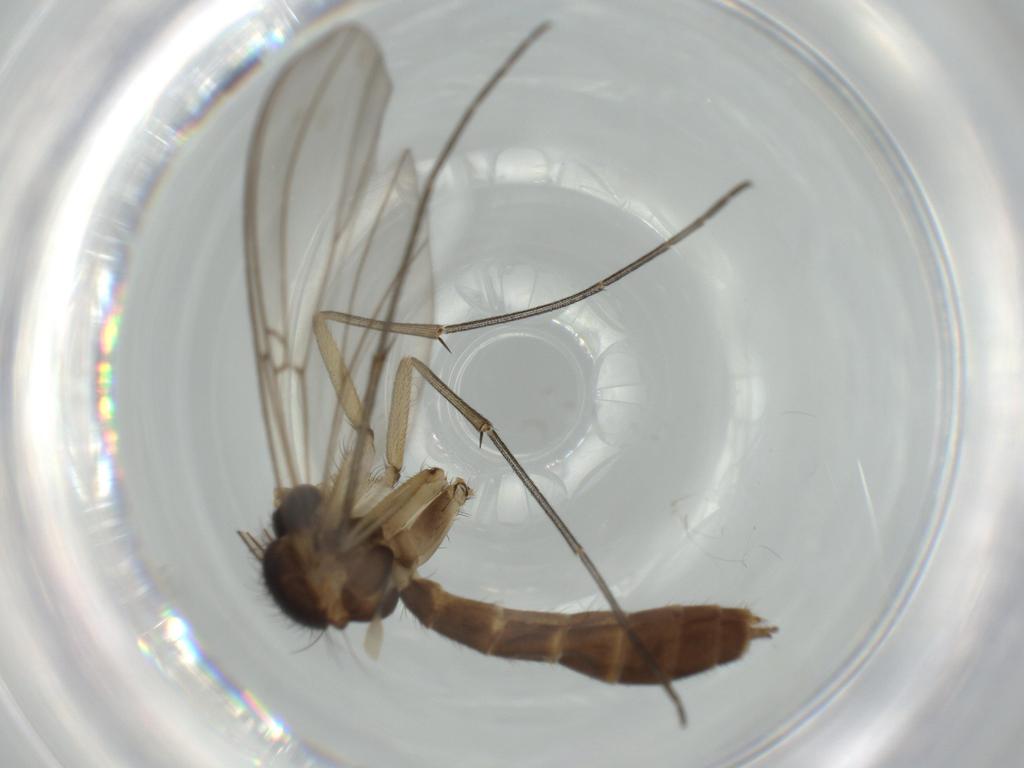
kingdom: Animalia
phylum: Arthropoda
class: Insecta
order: Diptera
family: Phoridae
